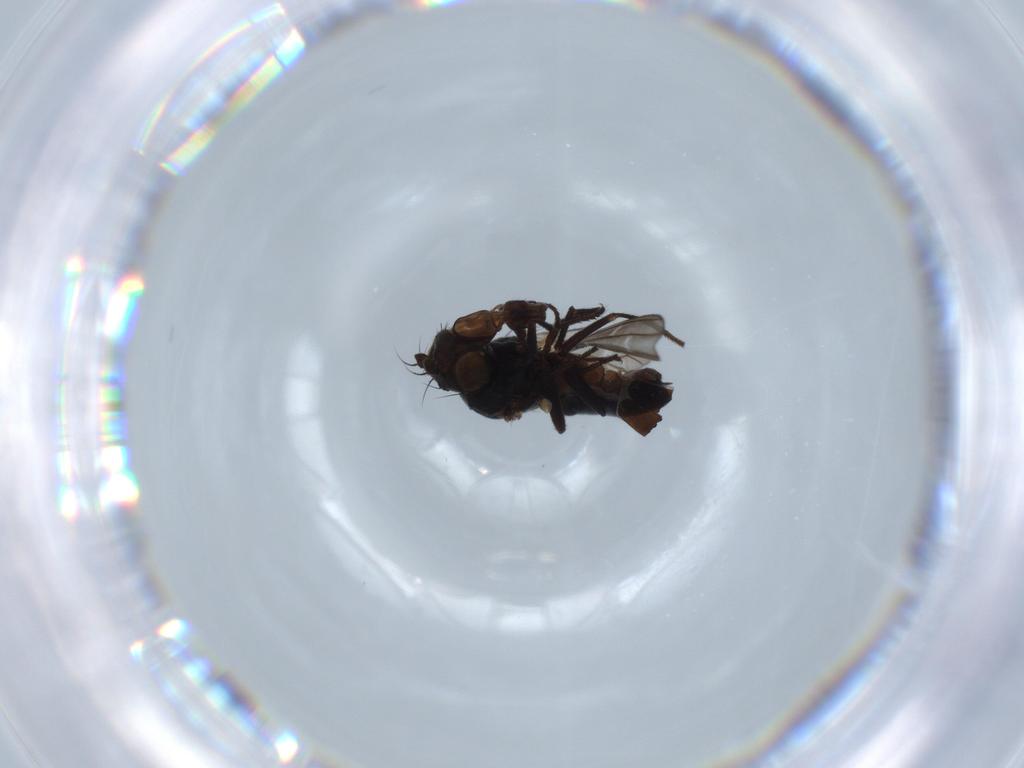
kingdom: Animalia
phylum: Arthropoda
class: Insecta
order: Diptera
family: Ephydridae
